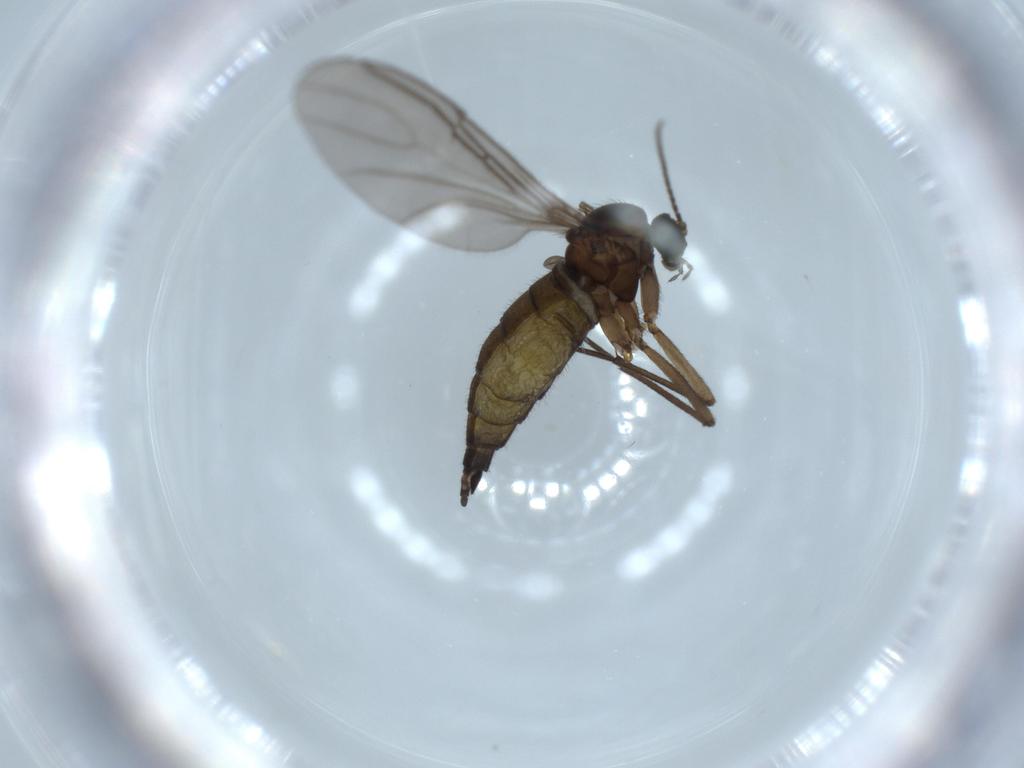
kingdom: Animalia
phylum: Arthropoda
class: Insecta
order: Diptera
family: Sciaridae
